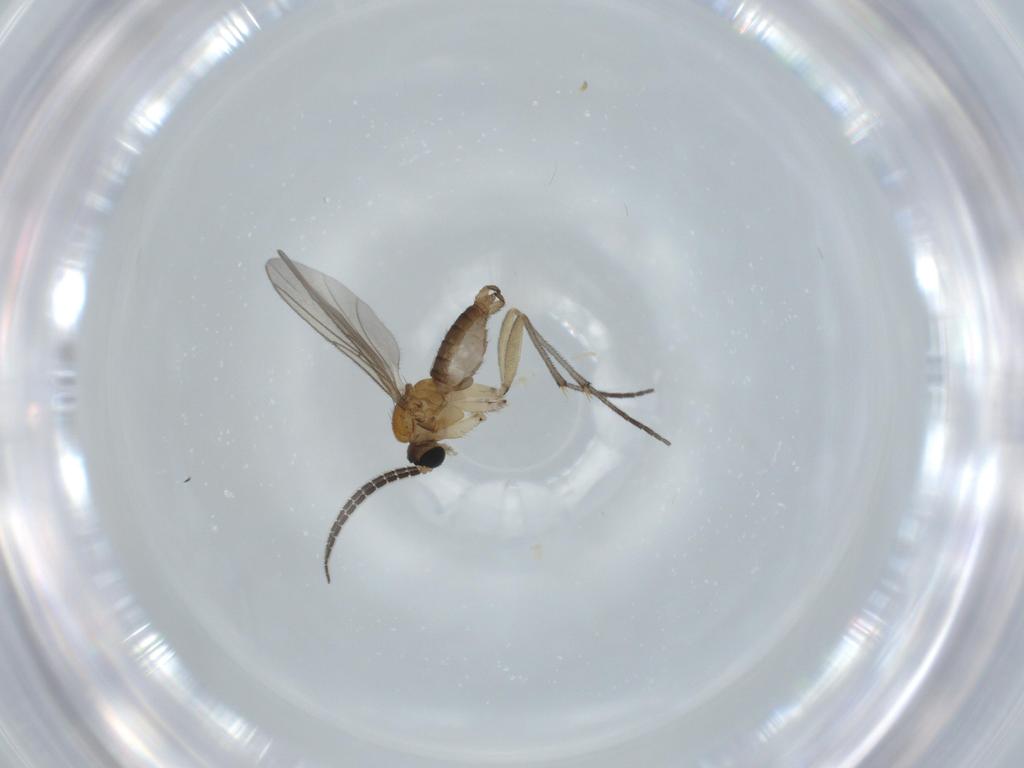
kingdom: Animalia
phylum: Arthropoda
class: Insecta
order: Diptera
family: Sciaridae
